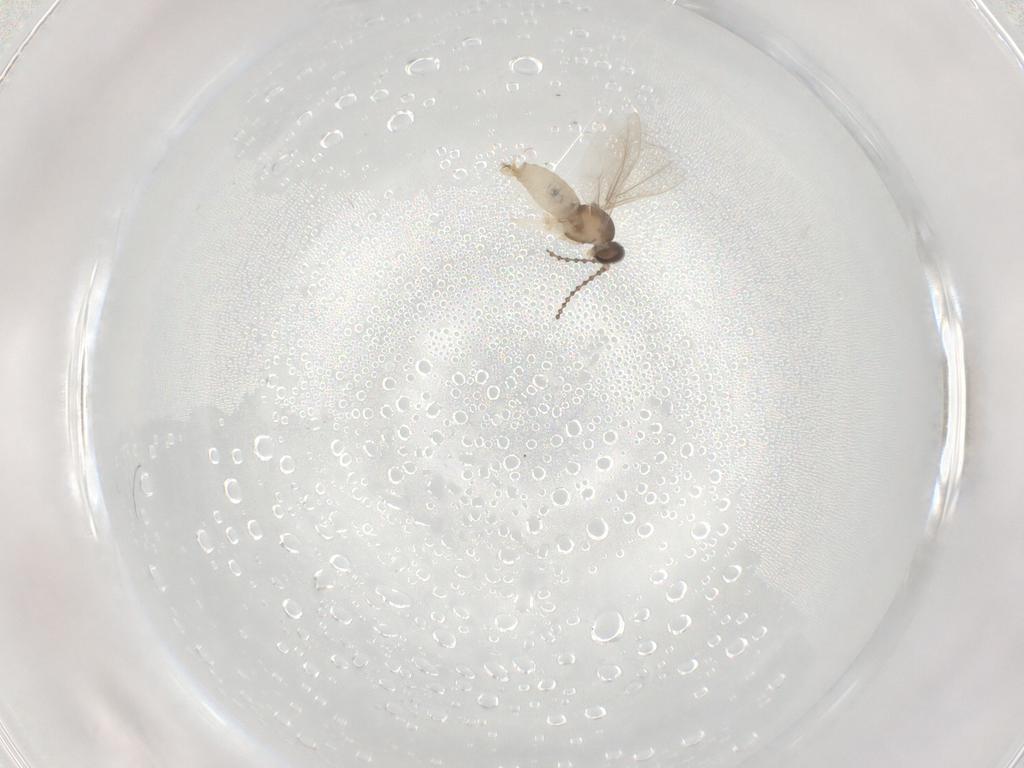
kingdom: Animalia
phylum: Arthropoda
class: Insecta
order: Diptera
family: Cecidomyiidae
